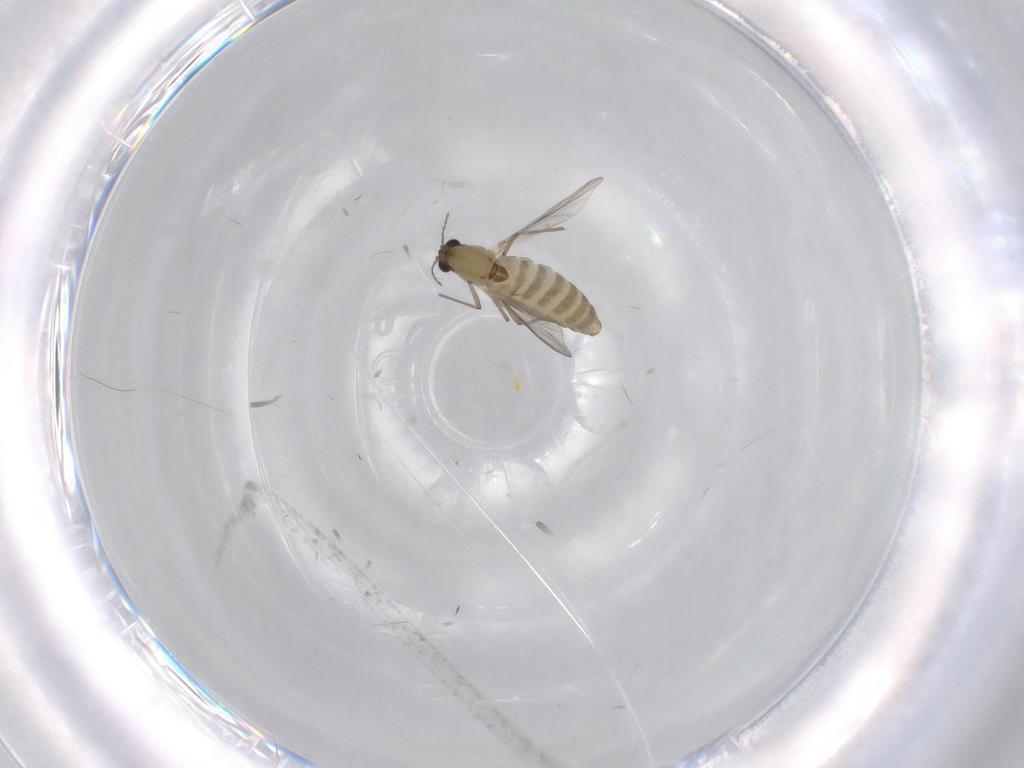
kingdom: Animalia
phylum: Arthropoda
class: Insecta
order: Diptera
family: Chironomidae
